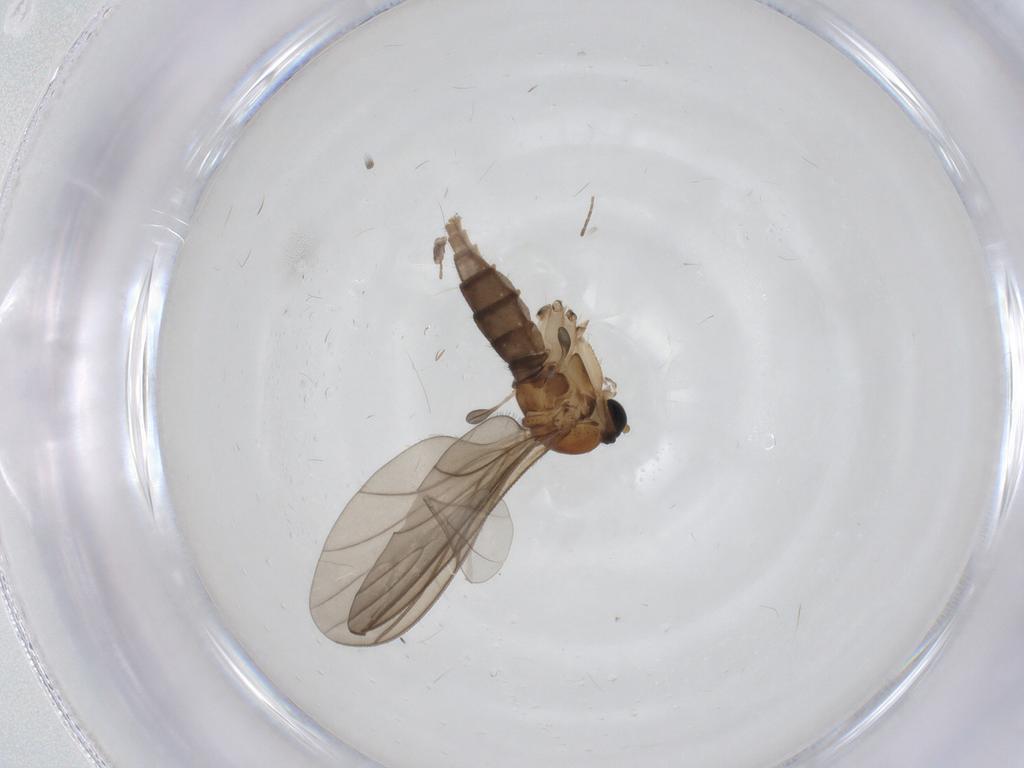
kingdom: Animalia
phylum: Arthropoda
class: Insecta
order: Diptera
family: Sciaridae
